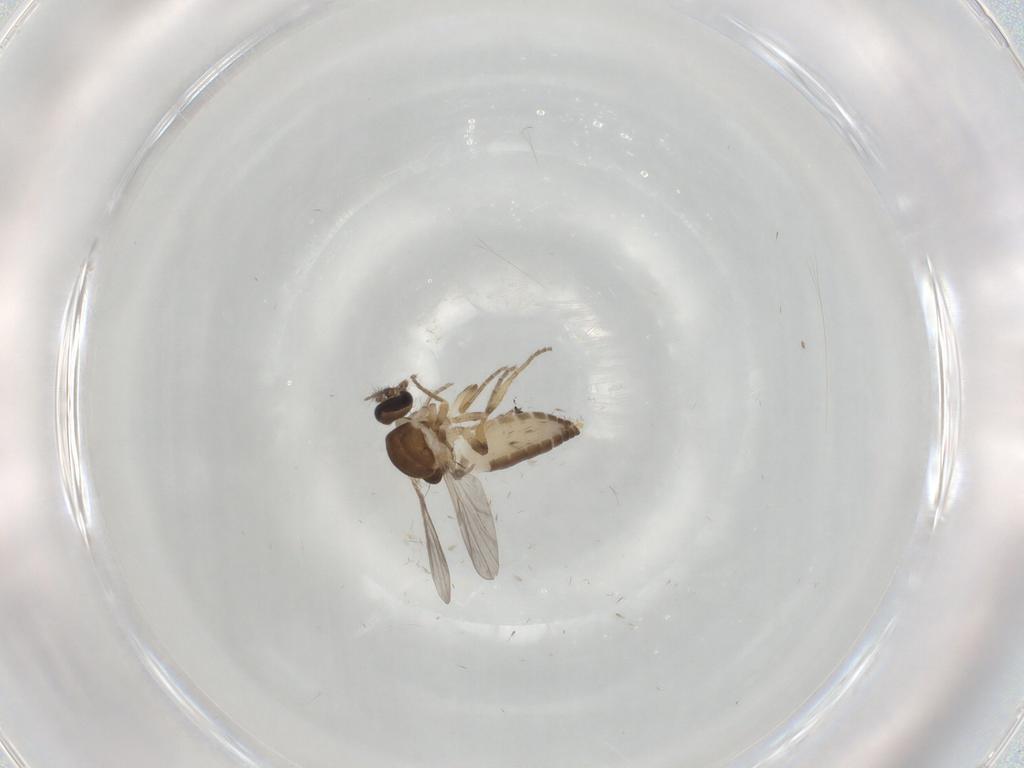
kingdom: Animalia
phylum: Arthropoda
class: Insecta
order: Diptera
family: Ceratopogonidae
